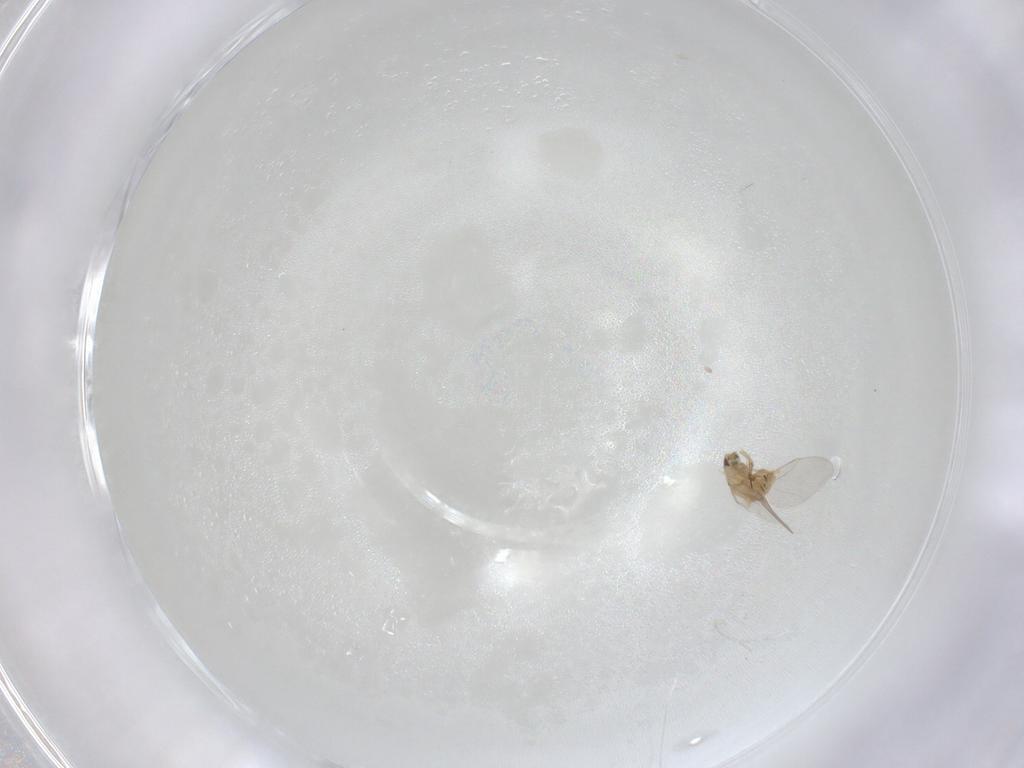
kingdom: Animalia
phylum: Arthropoda
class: Insecta
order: Diptera
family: Agromyzidae
